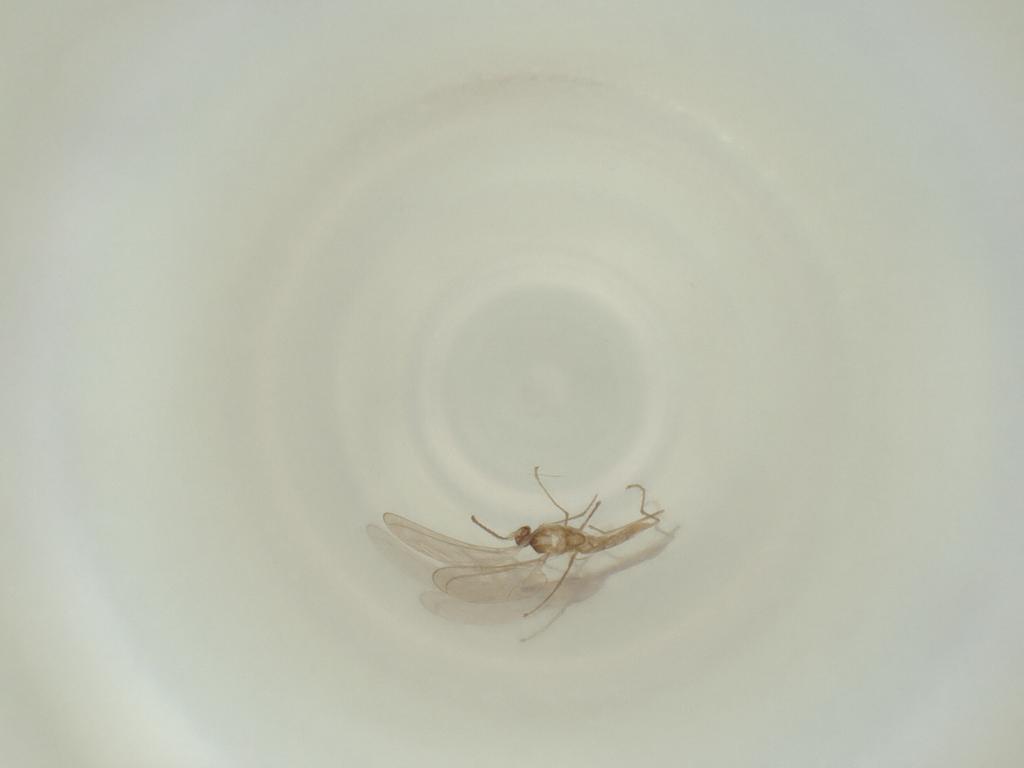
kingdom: Animalia
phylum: Arthropoda
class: Insecta
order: Diptera
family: Cecidomyiidae
